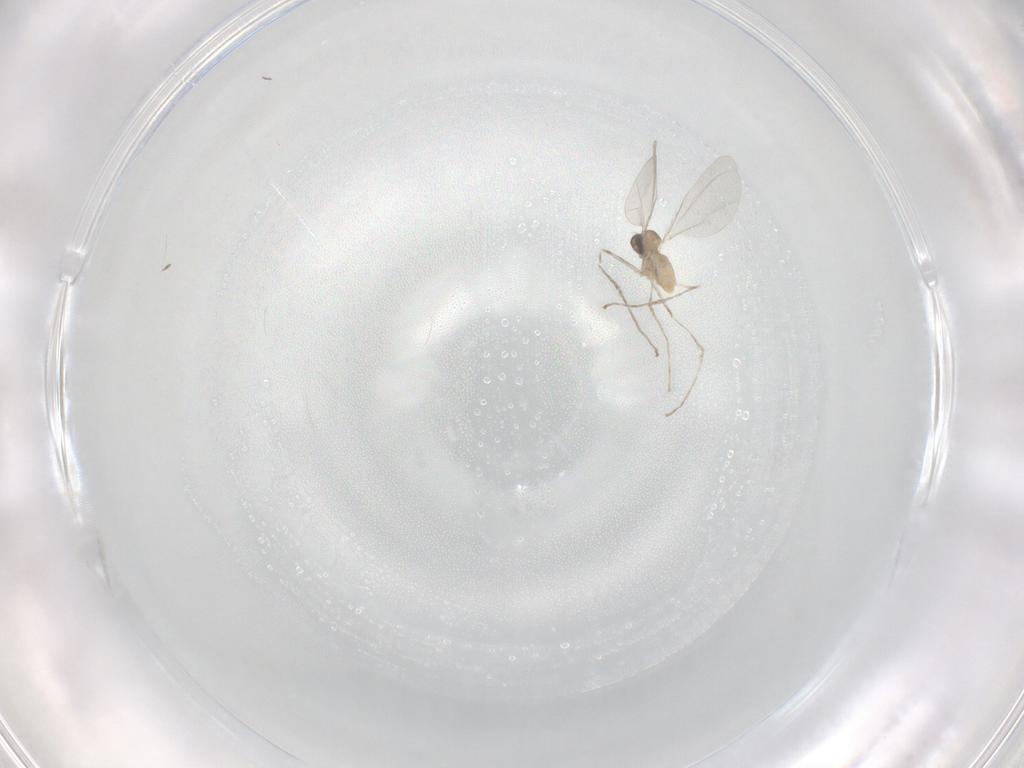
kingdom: Animalia
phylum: Arthropoda
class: Insecta
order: Diptera
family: Cecidomyiidae
